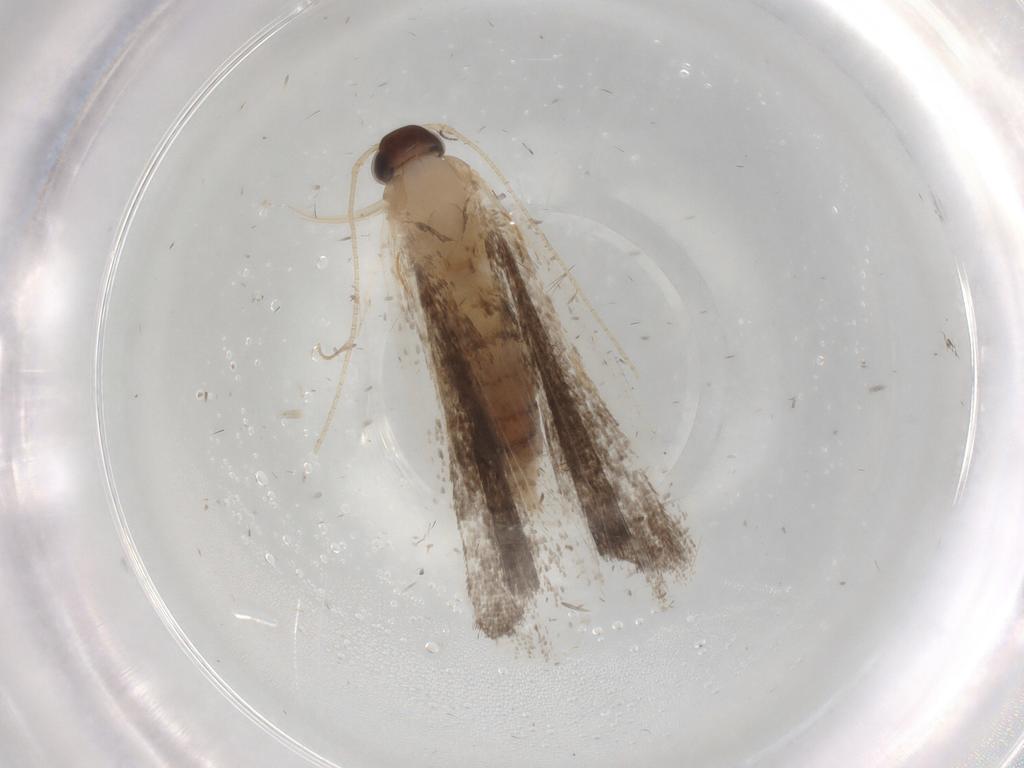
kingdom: Animalia
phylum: Arthropoda
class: Insecta
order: Lepidoptera
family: Cosmopterigidae
